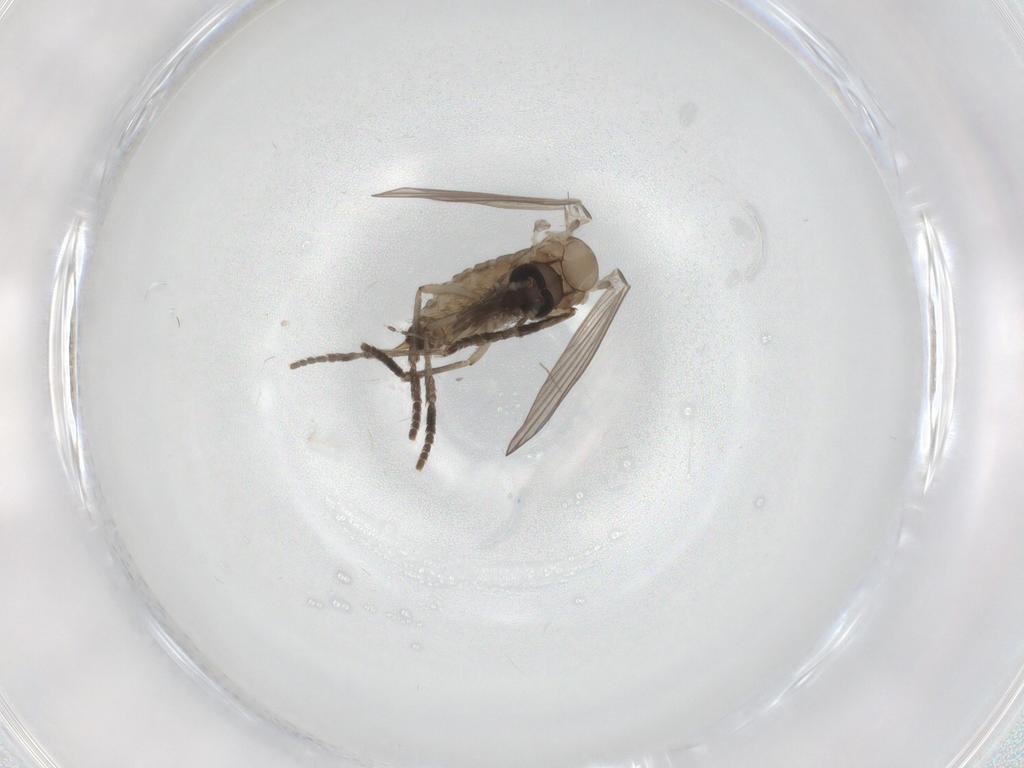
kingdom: Animalia
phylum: Arthropoda
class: Insecta
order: Diptera
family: Psychodidae
